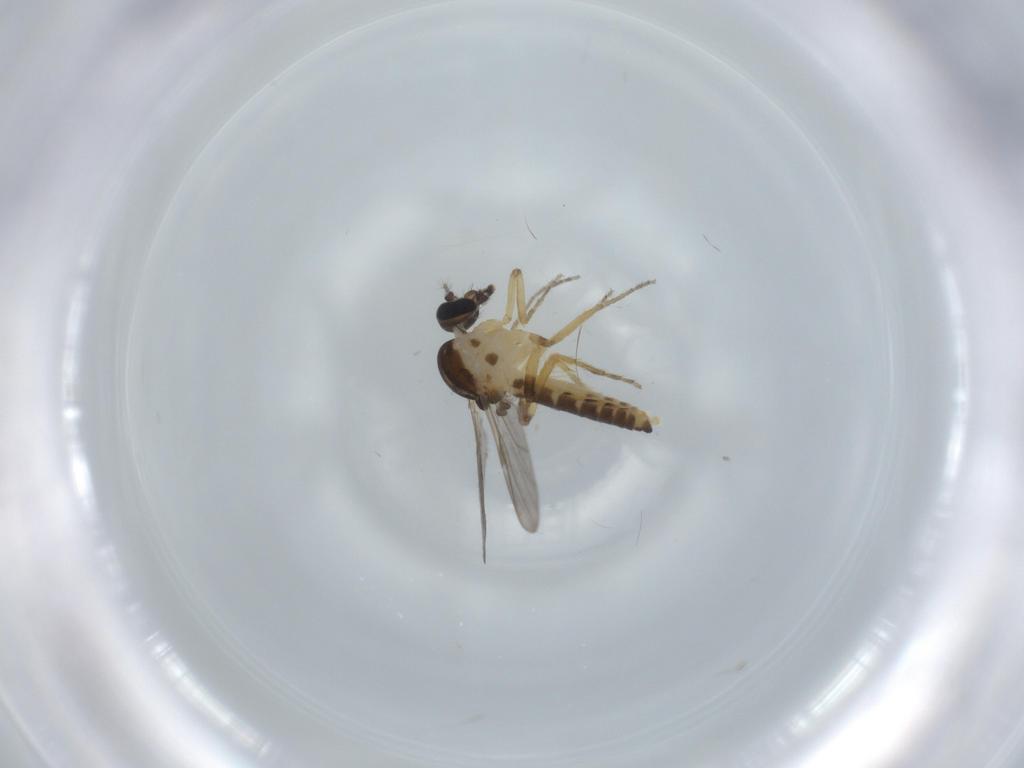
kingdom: Animalia
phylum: Arthropoda
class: Insecta
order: Diptera
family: Ceratopogonidae
